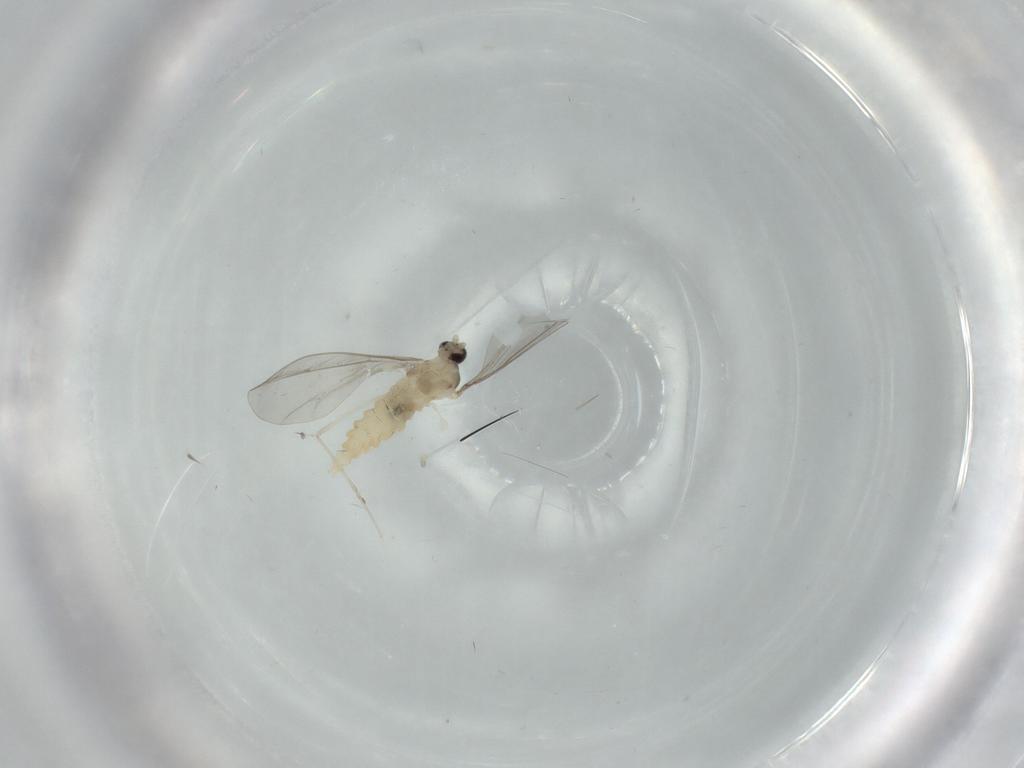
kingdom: Animalia
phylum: Arthropoda
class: Insecta
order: Diptera
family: Cecidomyiidae
